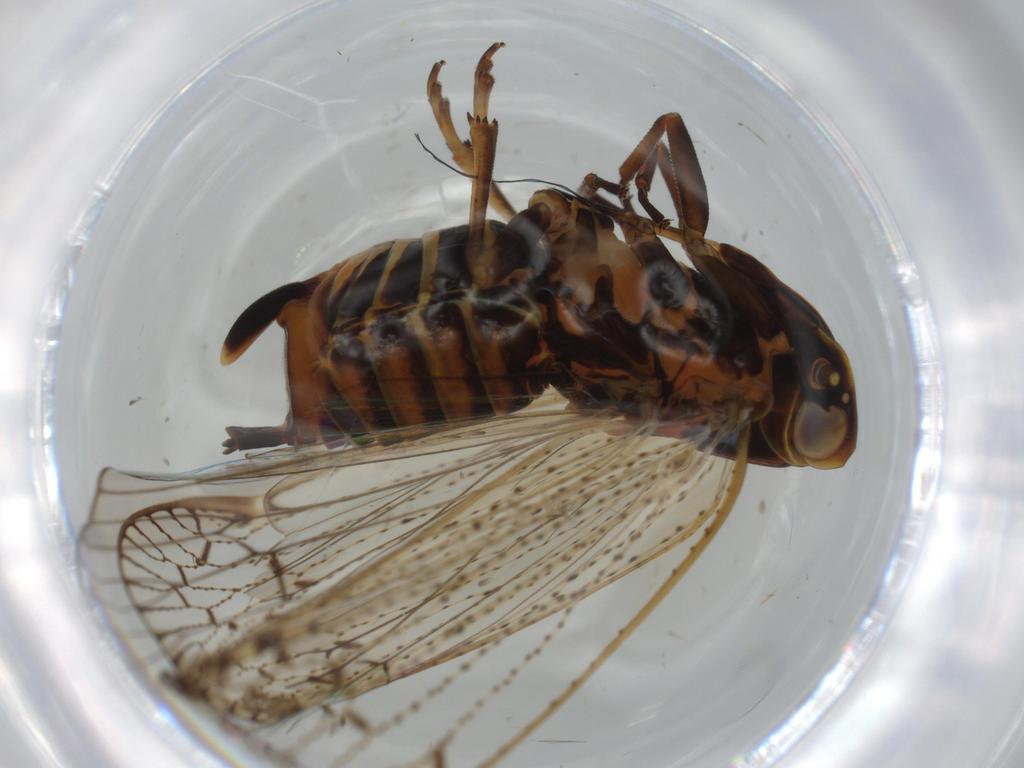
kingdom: Animalia
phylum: Arthropoda
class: Insecta
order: Hemiptera
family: Cixiidae
